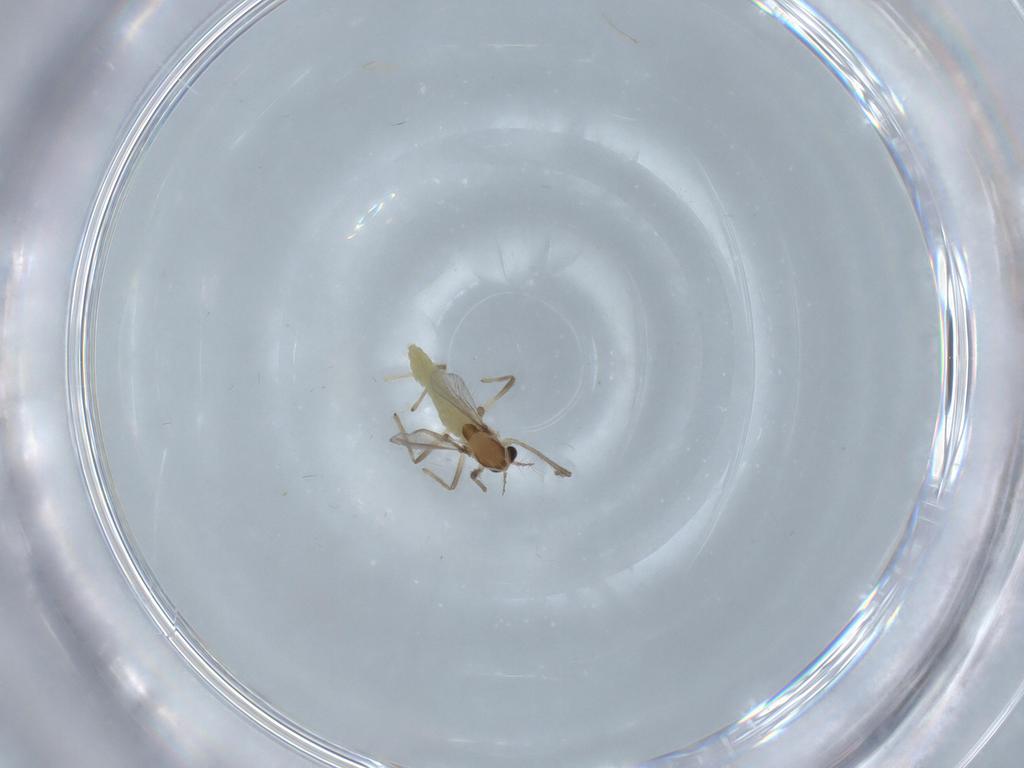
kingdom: Animalia
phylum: Arthropoda
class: Insecta
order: Diptera
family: Chironomidae
